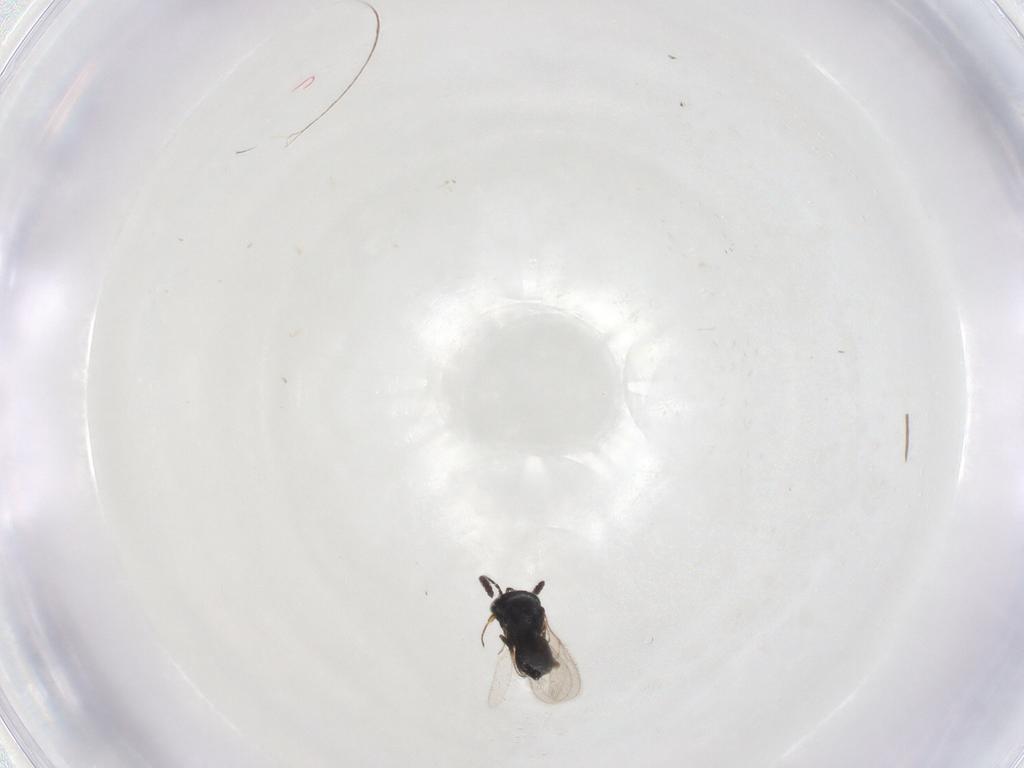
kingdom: Animalia
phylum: Arthropoda
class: Insecta
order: Hymenoptera
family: Scelionidae
